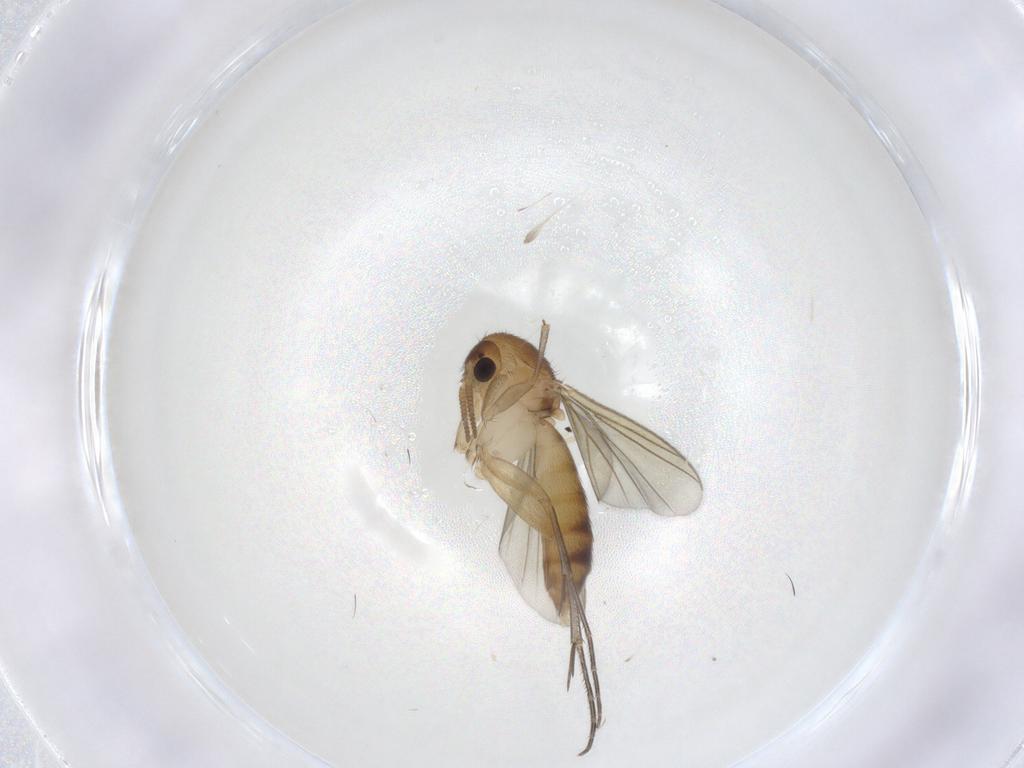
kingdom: Animalia
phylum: Arthropoda
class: Insecta
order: Diptera
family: Mycetophilidae
